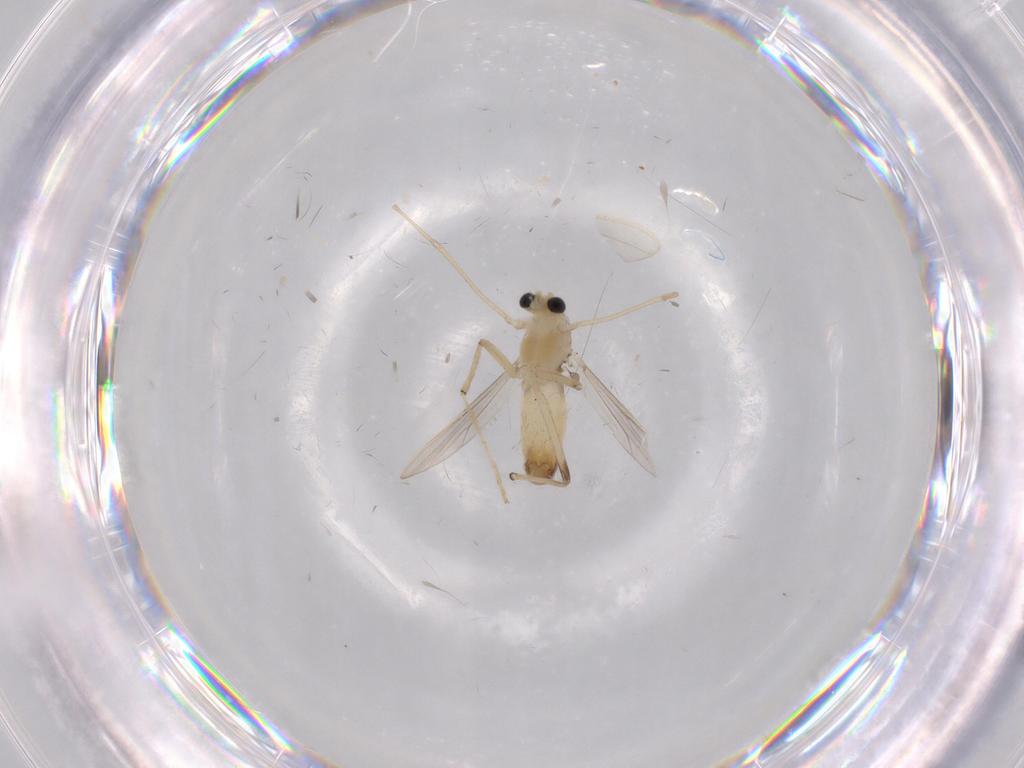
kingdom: Animalia
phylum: Arthropoda
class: Insecta
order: Diptera
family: Chironomidae
